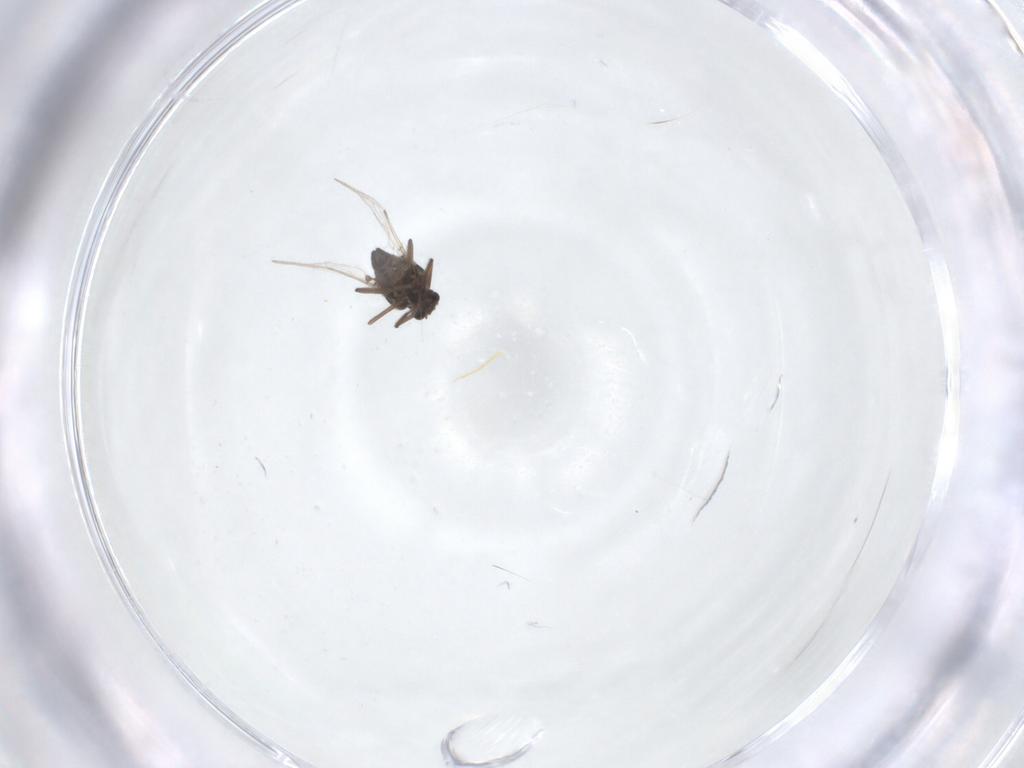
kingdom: Animalia
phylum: Arthropoda
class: Insecta
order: Diptera
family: Ceratopogonidae
